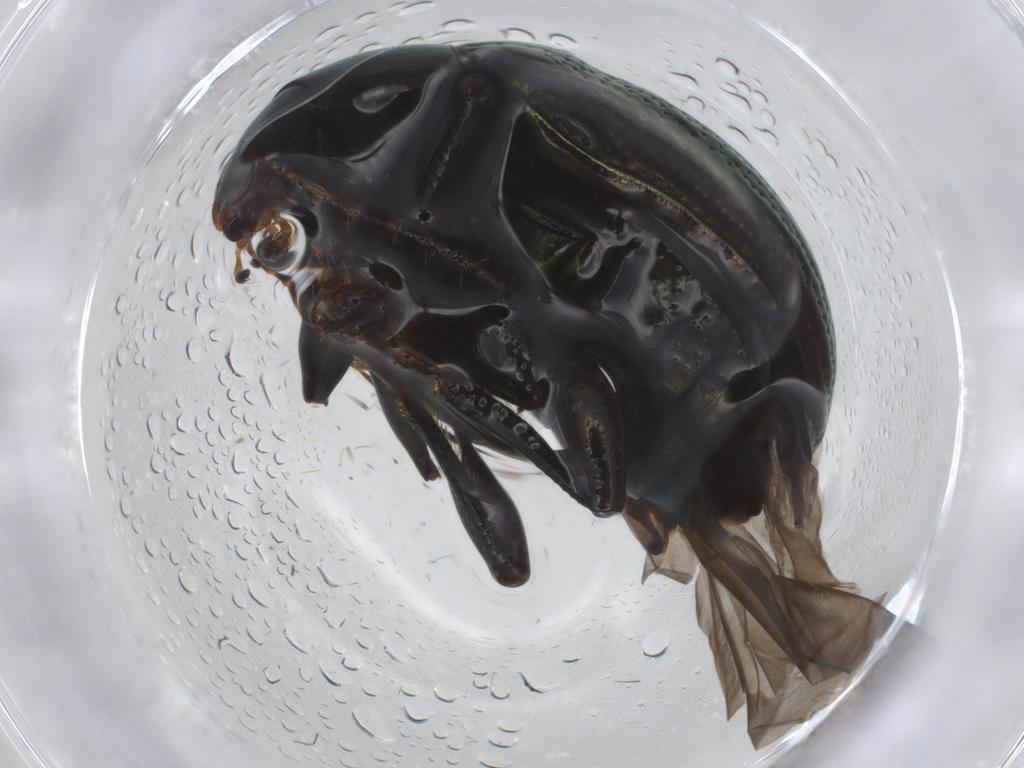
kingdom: Animalia
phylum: Arthropoda
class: Insecta
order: Coleoptera
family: Chrysomelidae
